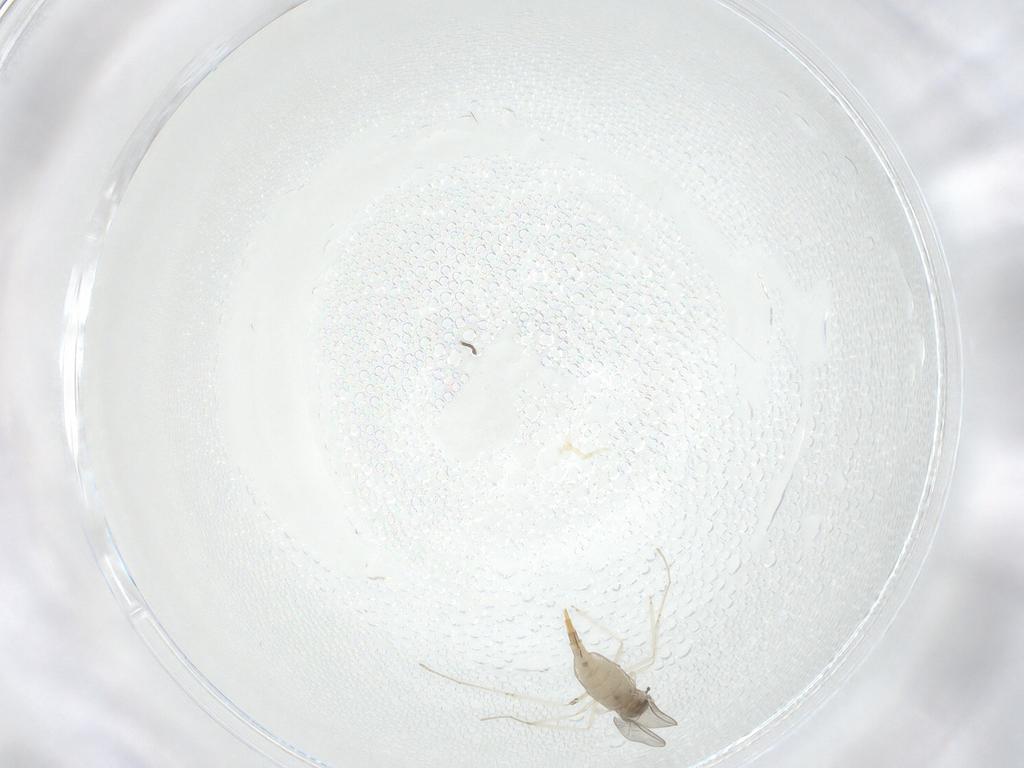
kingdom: Animalia
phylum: Arthropoda
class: Insecta
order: Diptera
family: Cecidomyiidae
